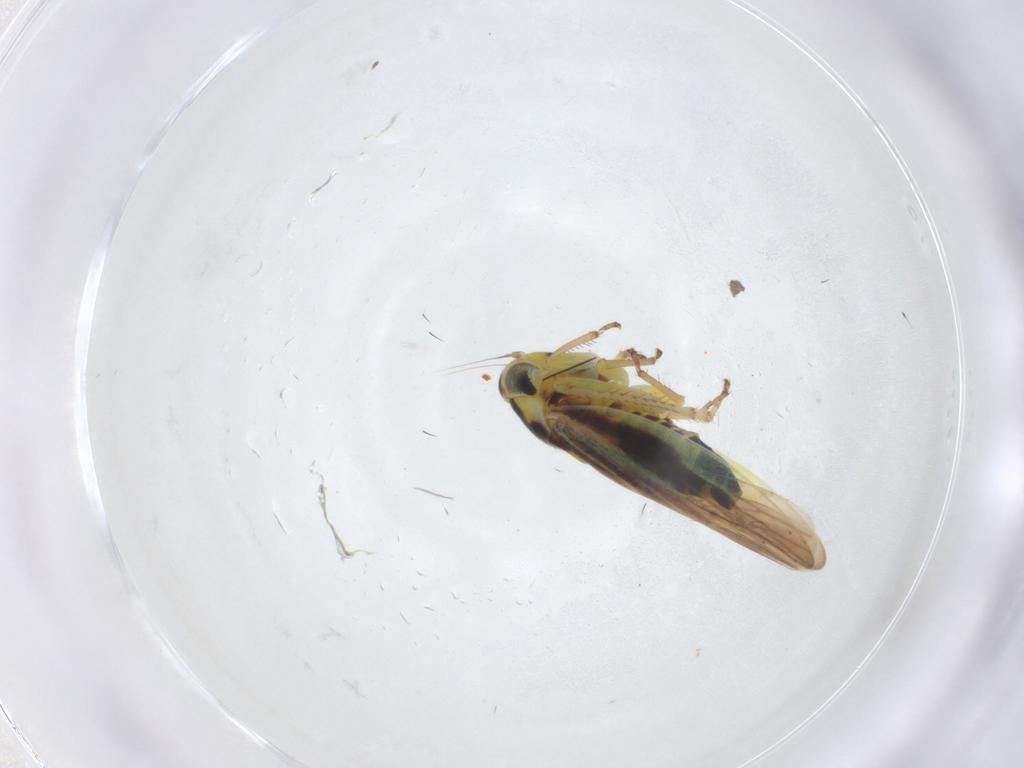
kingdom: Animalia
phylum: Arthropoda
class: Insecta
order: Hemiptera
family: Cicadellidae
